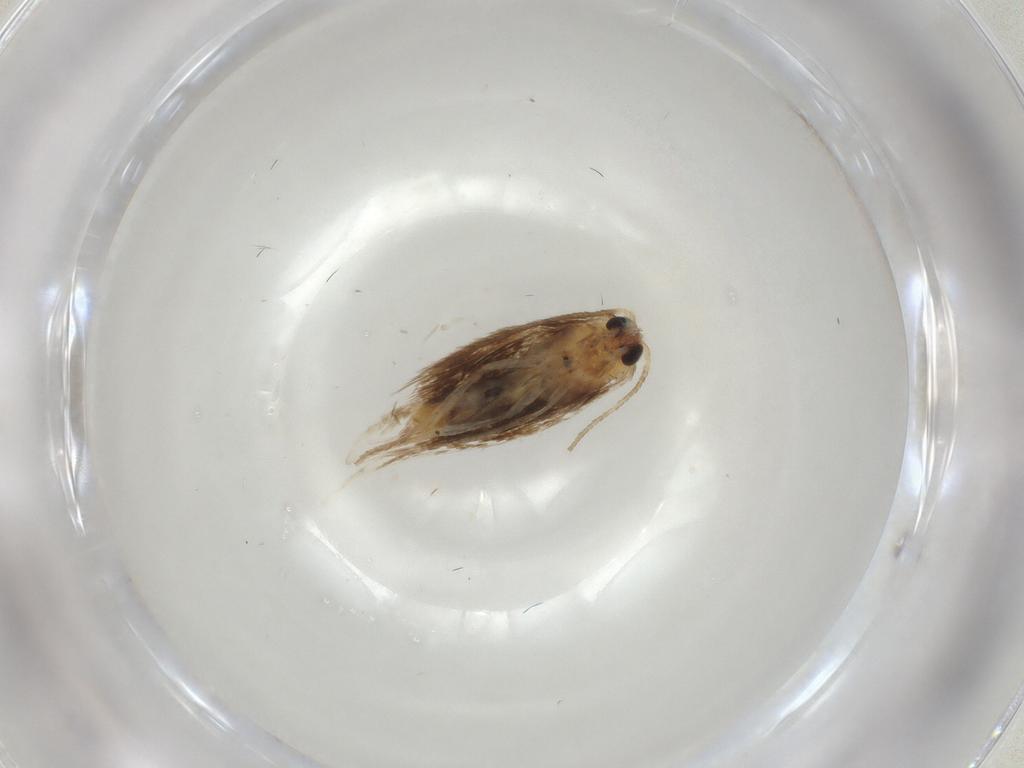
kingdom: Animalia
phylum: Arthropoda
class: Insecta
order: Lepidoptera
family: Nepticulidae
